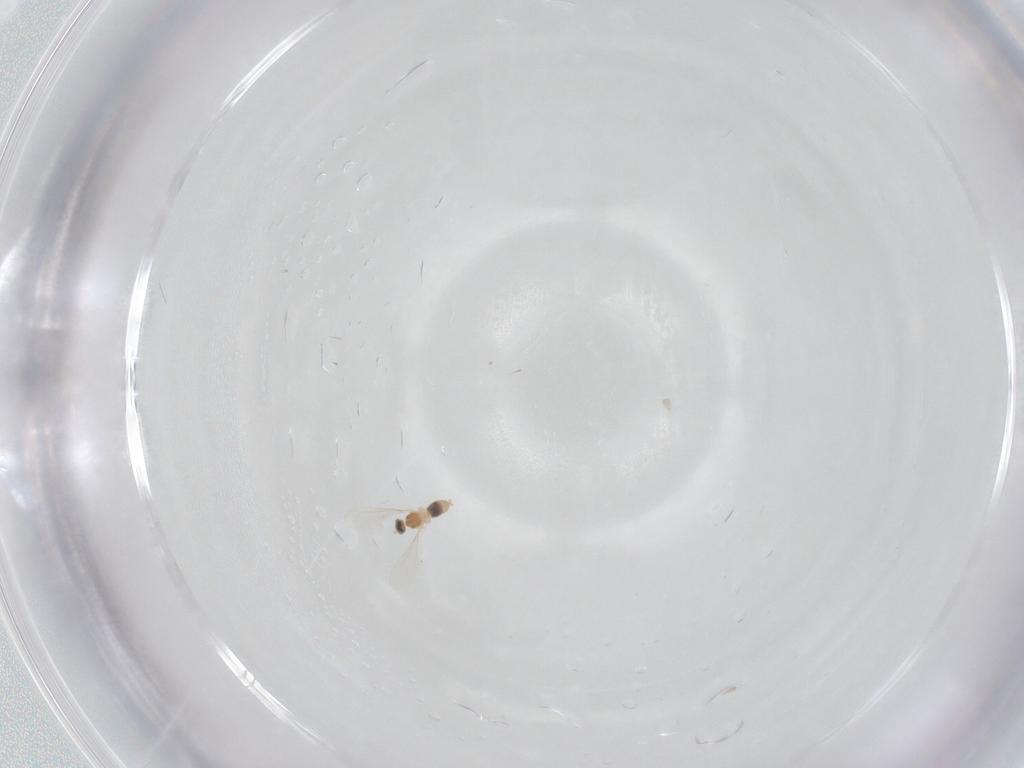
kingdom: Animalia
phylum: Arthropoda
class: Insecta
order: Diptera
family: Cecidomyiidae
